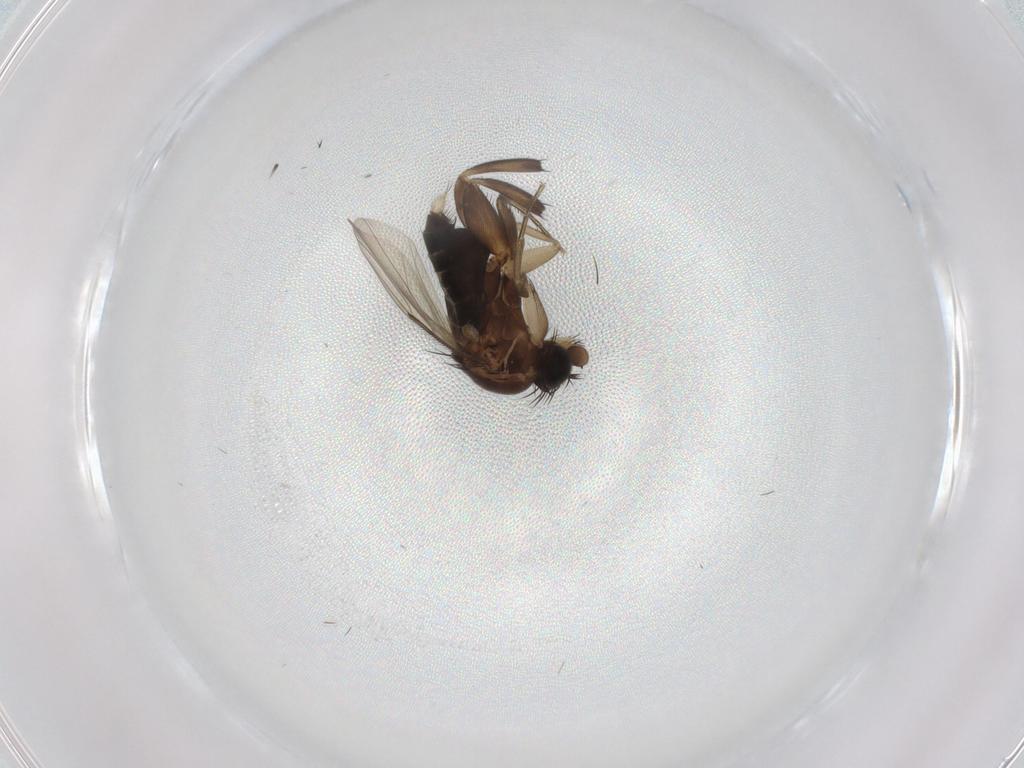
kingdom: Animalia
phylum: Arthropoda
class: Insecta
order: Diptera
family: Phoridae
